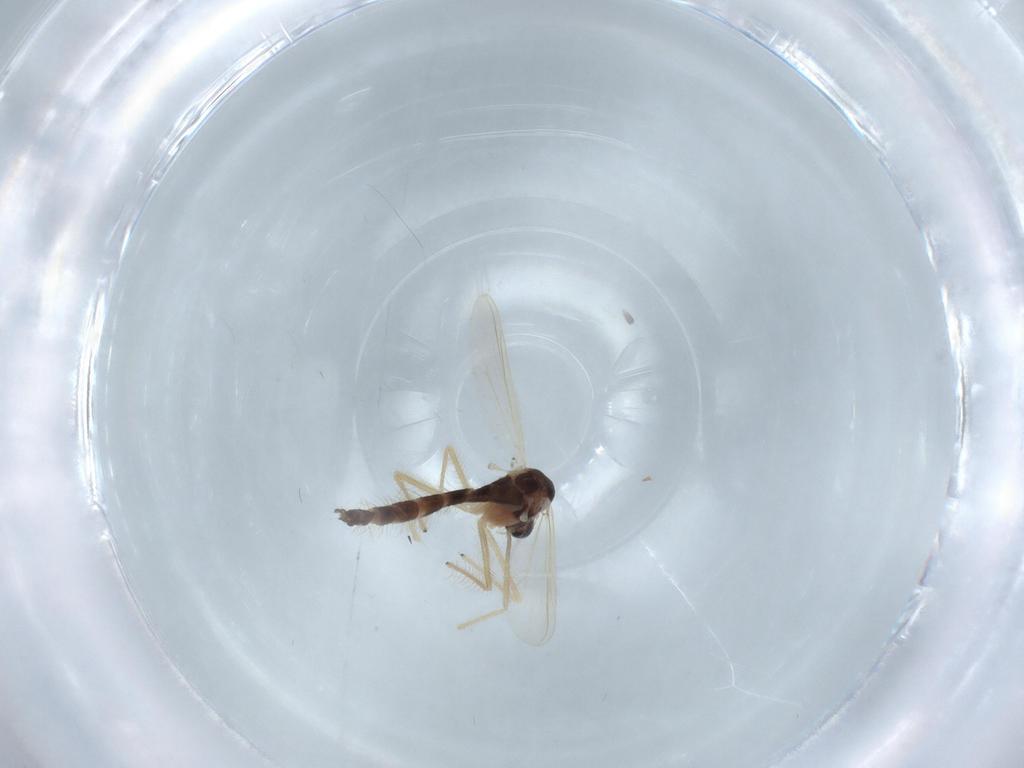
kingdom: Animalia
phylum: Arthropoda
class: Insecta
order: Diptera
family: Chironomidae
